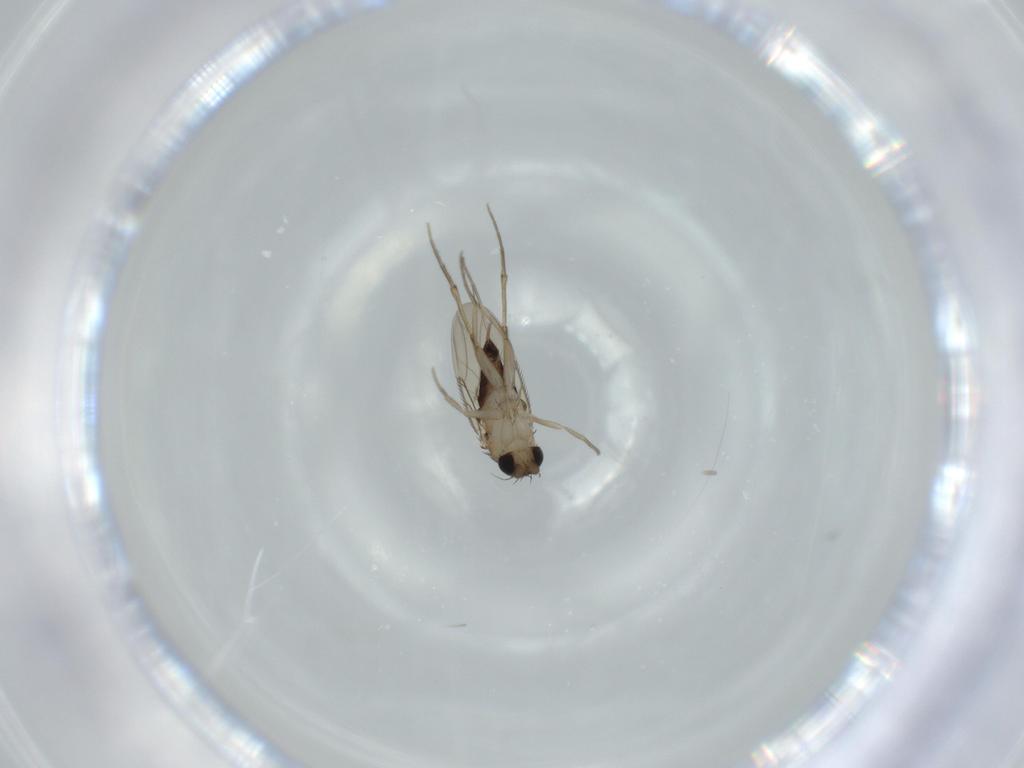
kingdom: Animalia
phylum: Arthropoda
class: Insecta
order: Diptera
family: Phoridae
